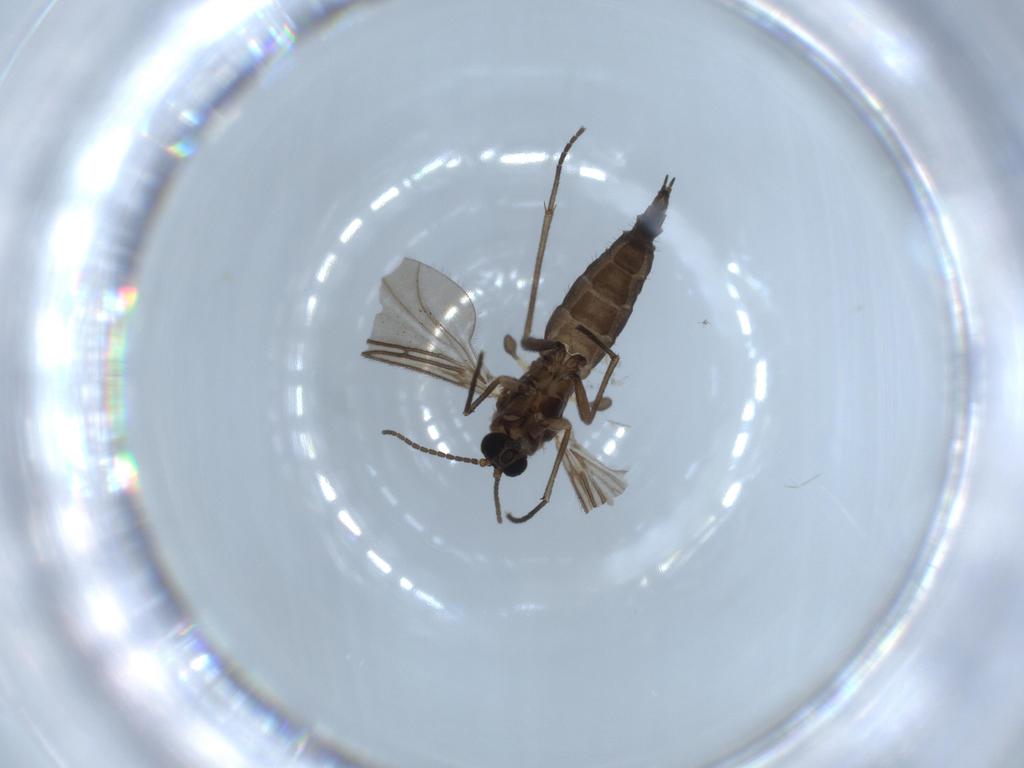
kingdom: Animalia
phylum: Arthropoda
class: Insecta
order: Diptera
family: Sciaridae
